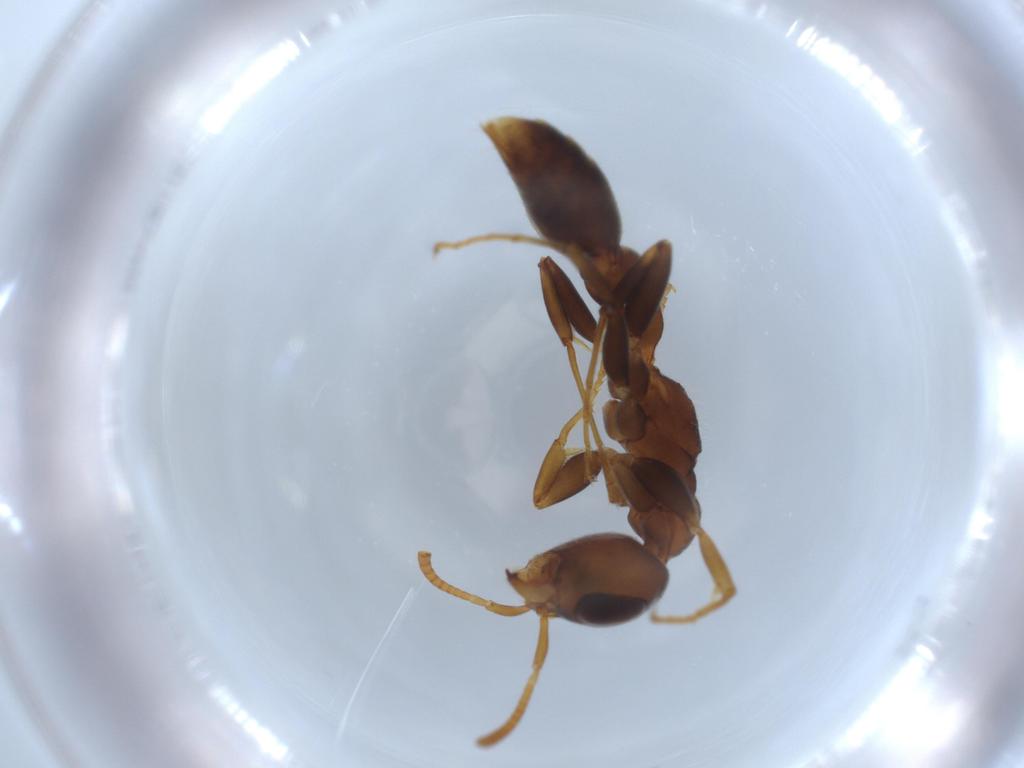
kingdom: Animalia
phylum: Arthropoda
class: Insecta
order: Hymenoptera
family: Formicidae
